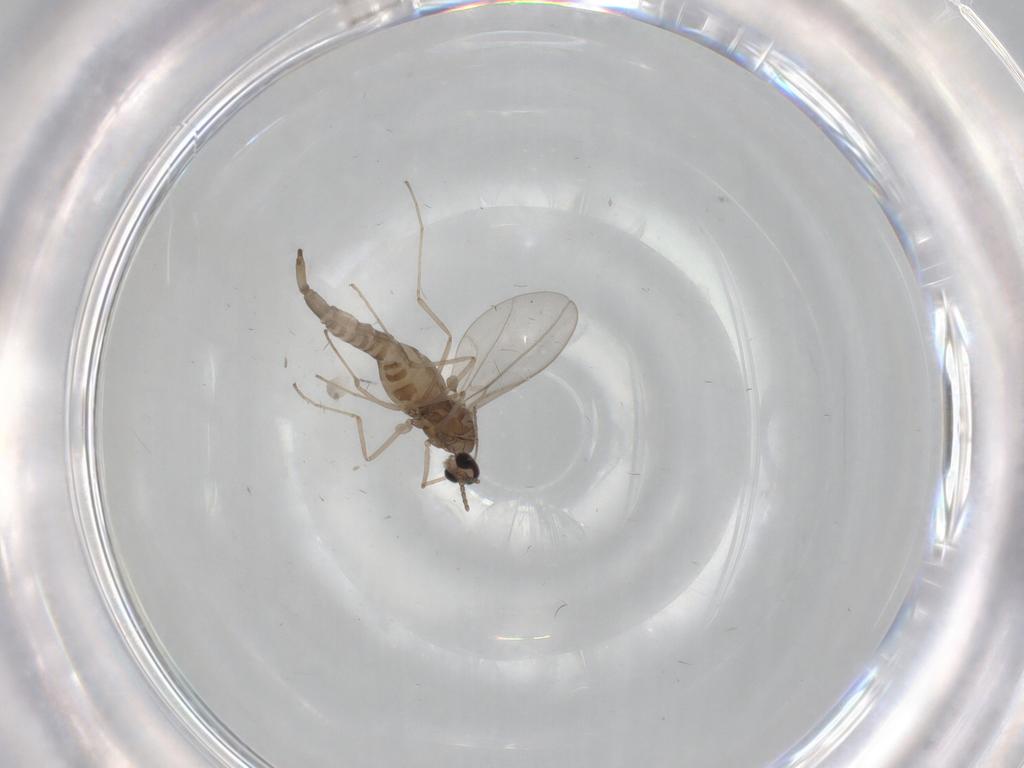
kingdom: Animalia
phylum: Arthropoda
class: Insecta
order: Diptera
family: Cecidomyiidae
